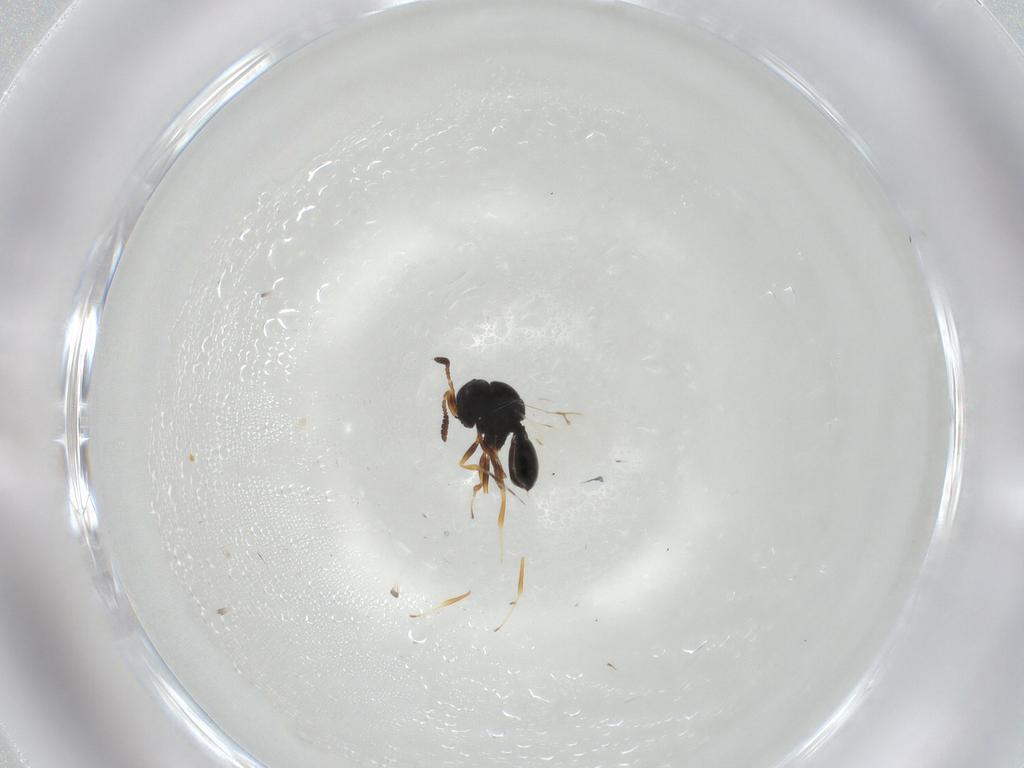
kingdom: Animalia
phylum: Arthropoda
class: Insecta
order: Hymenoptera
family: Scelionidae
